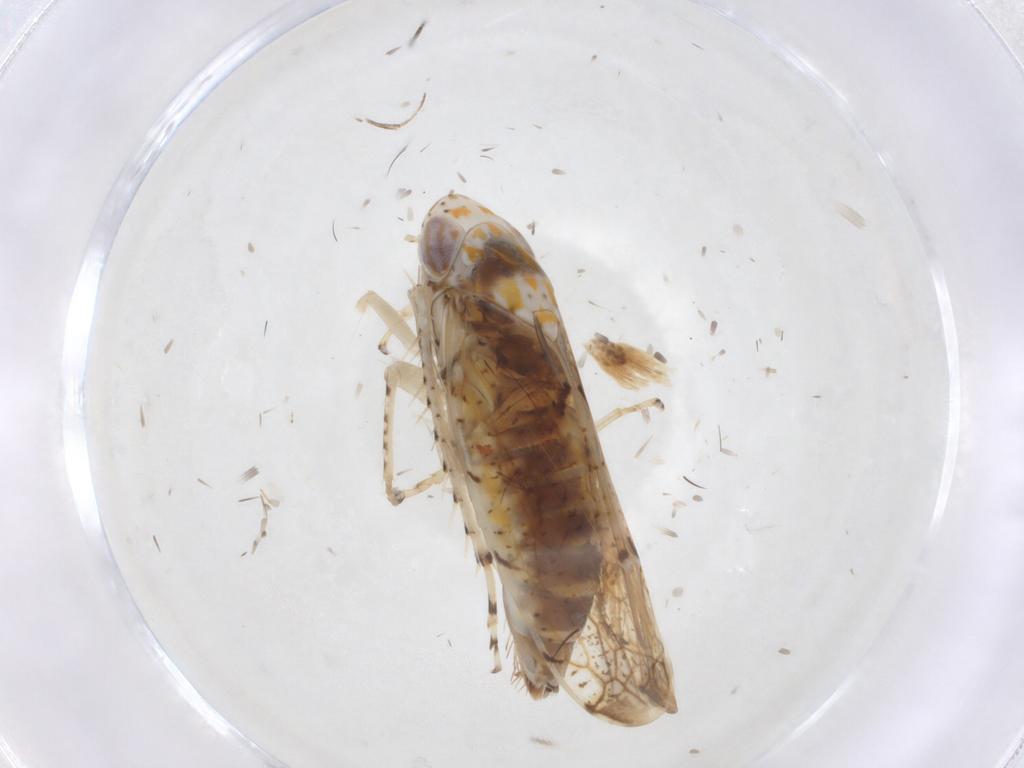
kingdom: Animalia
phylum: Arthropoda
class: Insecta
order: Hemiptera
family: Cicadellidae
